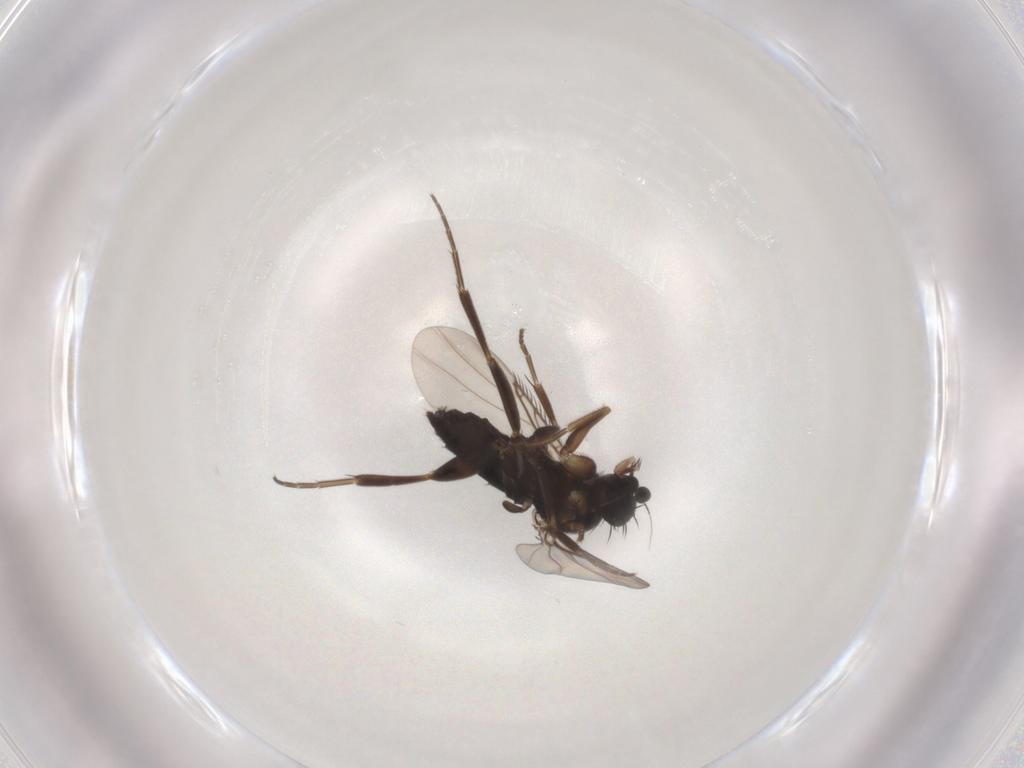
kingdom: Animalia
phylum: Arthropoda
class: Insecta
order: Diptera
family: Phoridae
